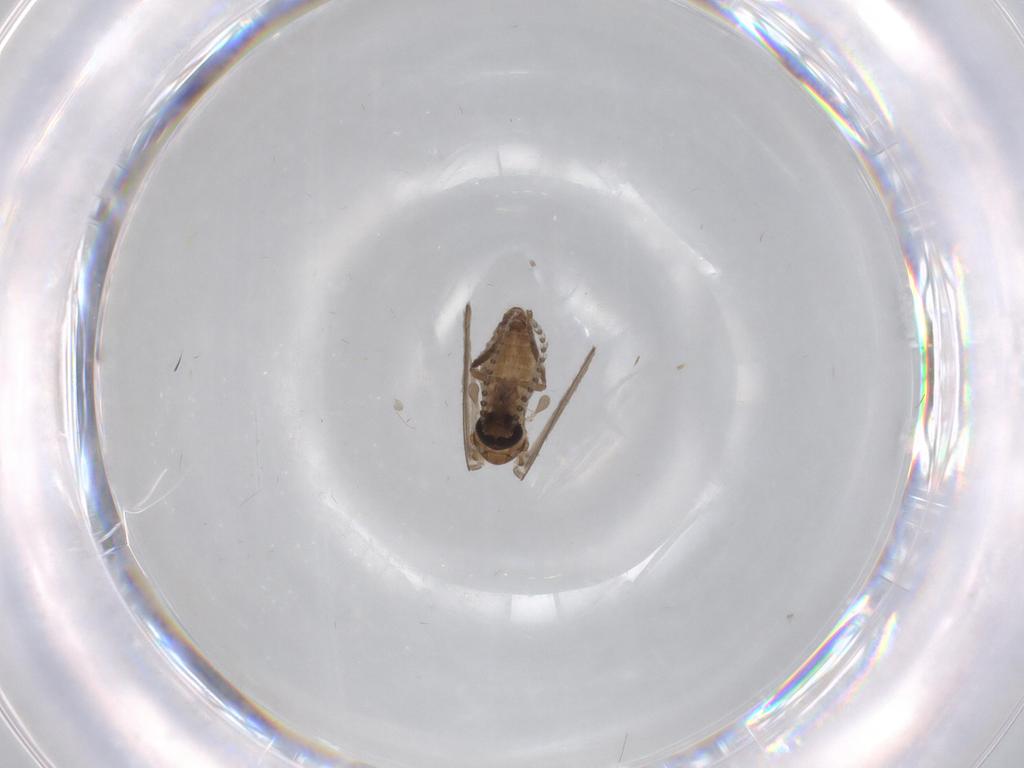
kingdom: Animalia
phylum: Arthropoda
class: Insecta
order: Diptera
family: Psychodidae
